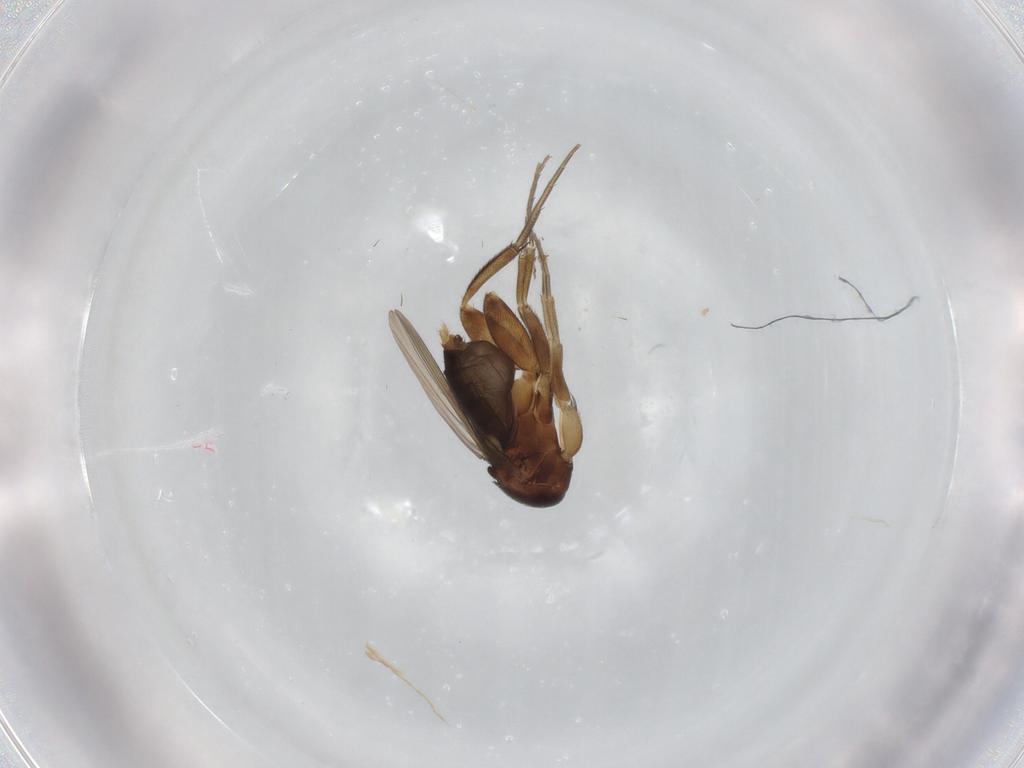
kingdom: Animalia
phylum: Arthropoda
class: Insecta
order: Diptera
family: Phoridae
